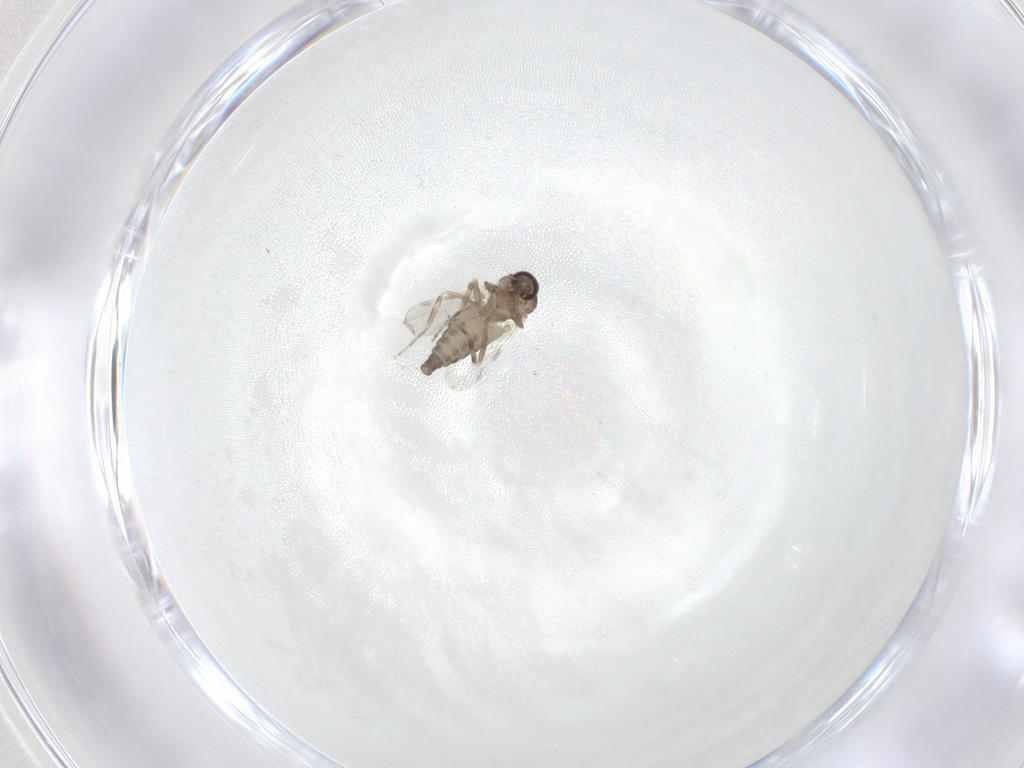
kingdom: Animalia
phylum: Arthropoda
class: Insecta
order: Diptera
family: Ceratopogonidae
